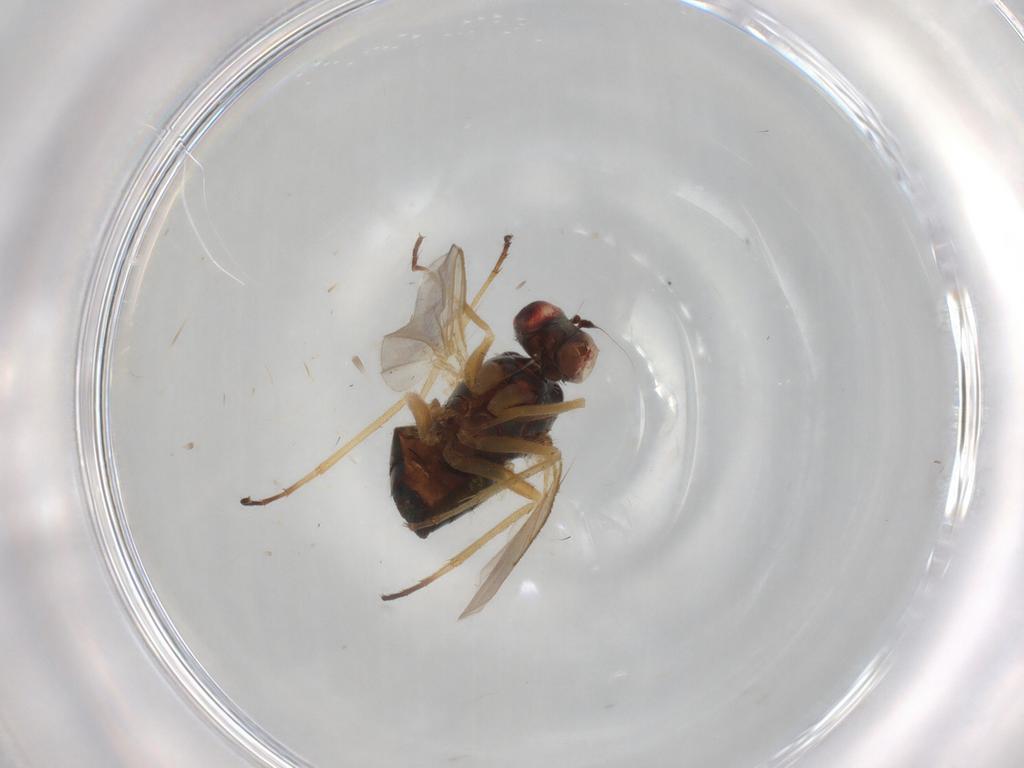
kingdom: Animalia
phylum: Arthropoda
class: Insecta
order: Diptera
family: Dolichopodidae
